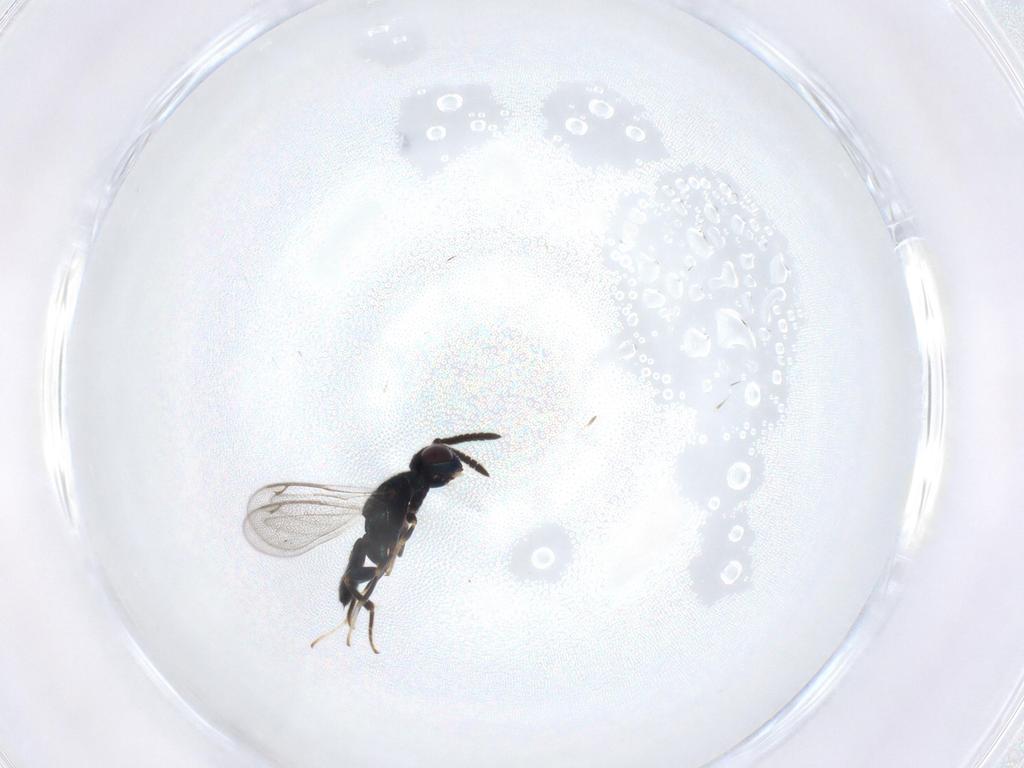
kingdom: Animalia
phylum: Arthropoda
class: Insecta
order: Hymenoptera
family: Cleonyminae
